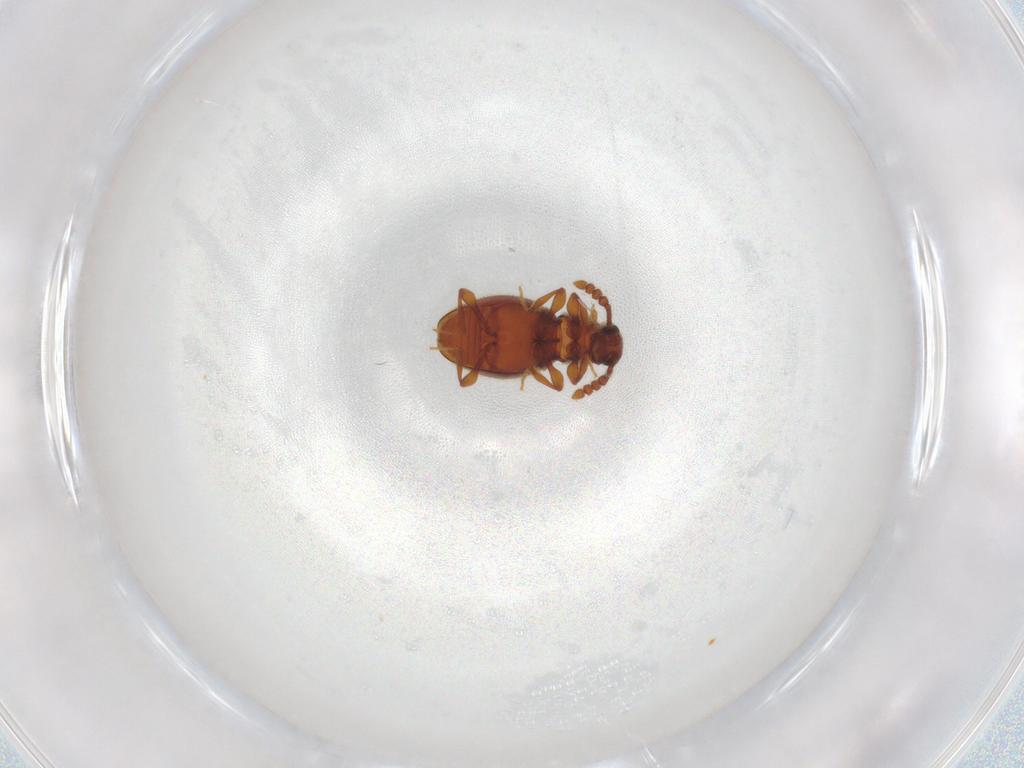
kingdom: Animalia
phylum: Arthropoda
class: Insecta
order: Coleoptera
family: Staphylinidae
